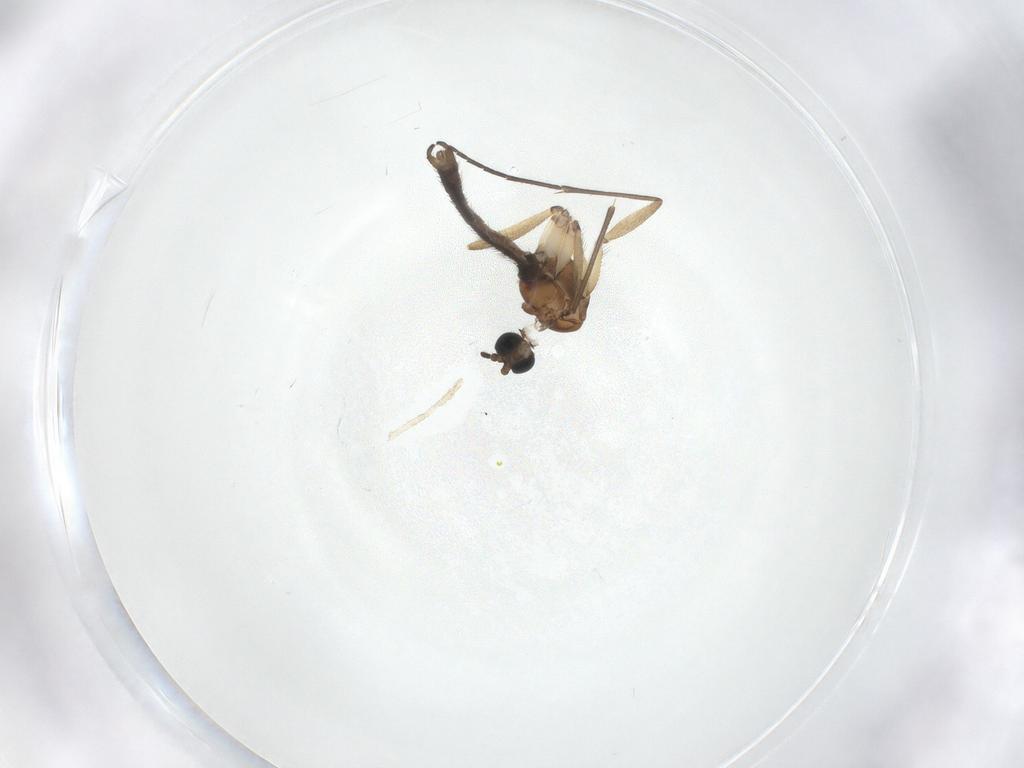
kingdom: Animalia
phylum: Arthropoda
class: Insecta
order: Diptera
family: Sciaridae
